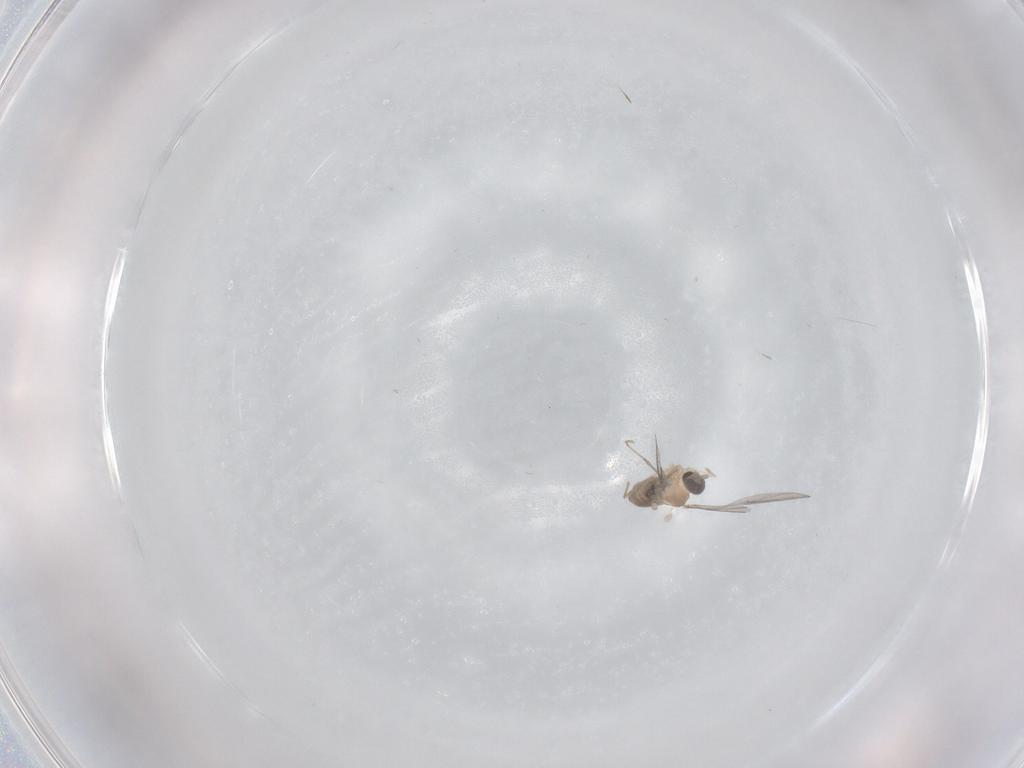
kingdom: Animalia
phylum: Arthropoda
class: Insecta
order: Diptera
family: Cecidomyiidae
